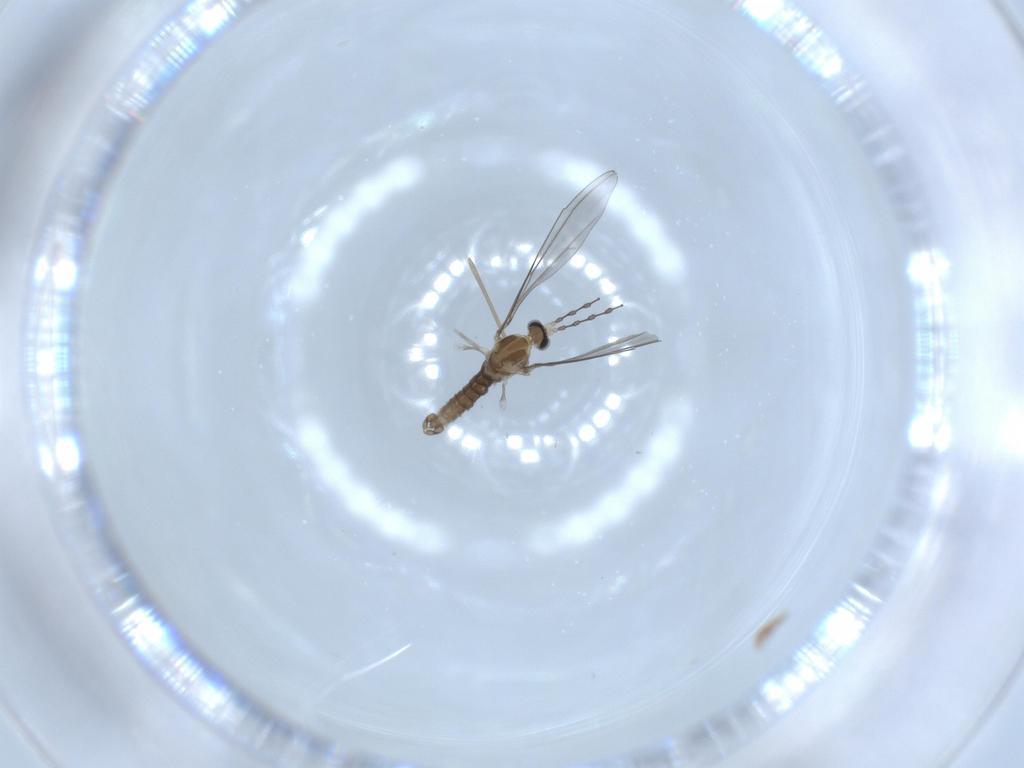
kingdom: Animalia
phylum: Arthropoda
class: Insecta
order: Diptera
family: Cecidomyiidae
